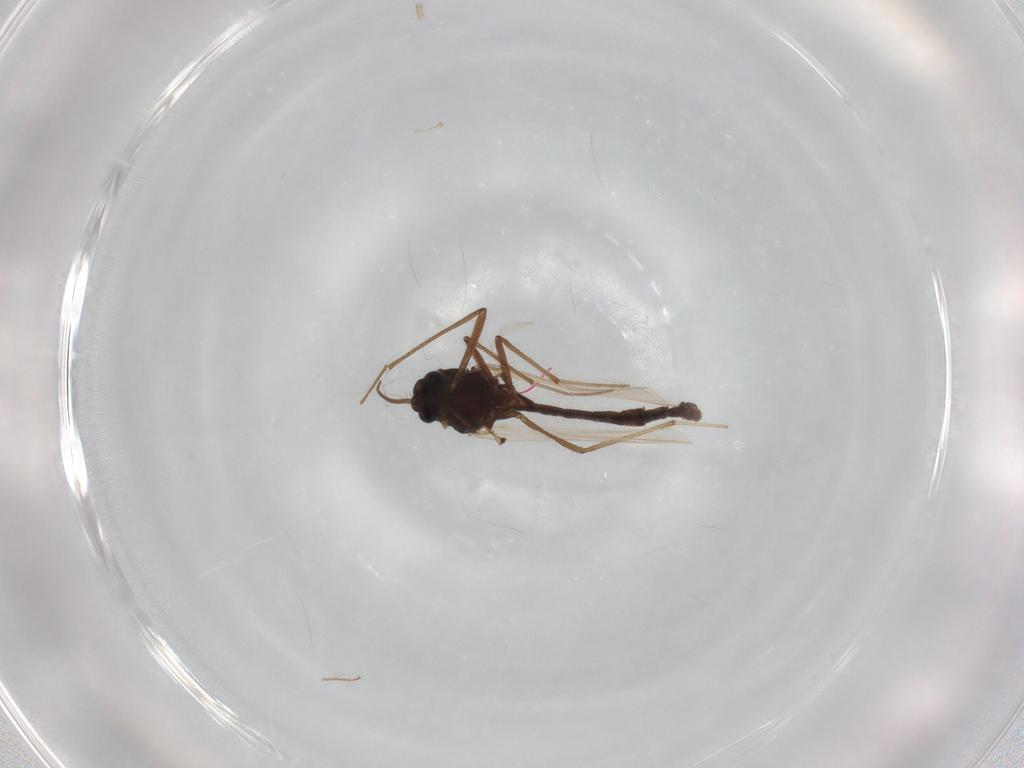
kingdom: Animalia
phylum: Arthropoda
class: Insecta
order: Diptera
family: Chironomidae
